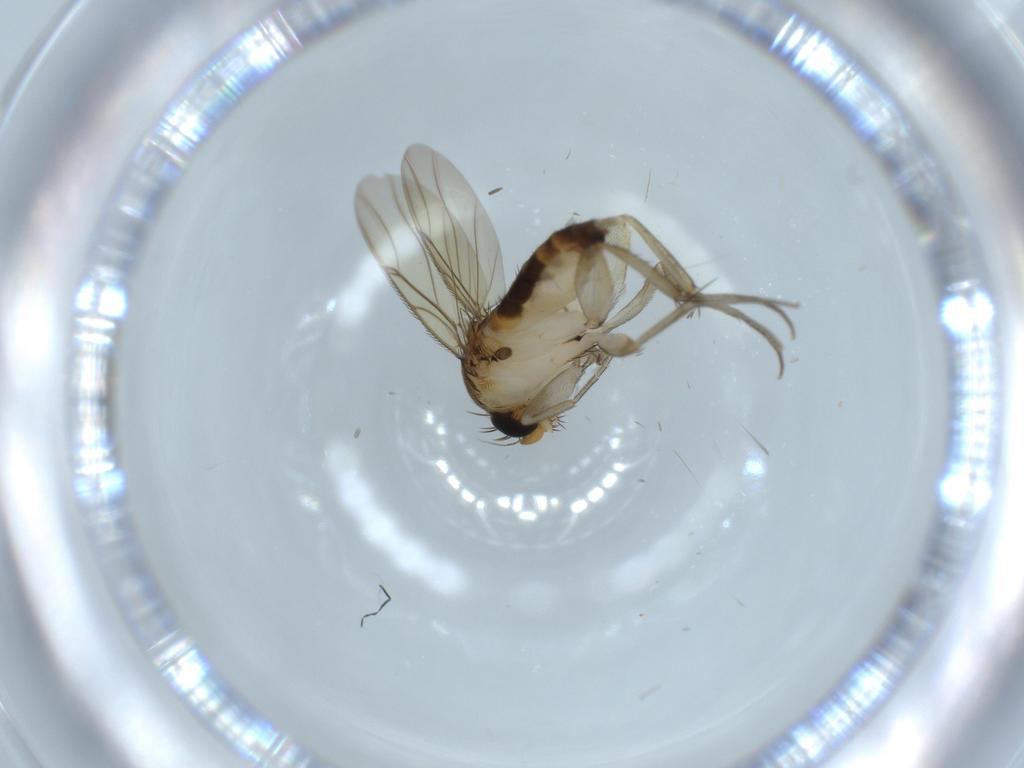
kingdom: Animalia
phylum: Arthropoda
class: Insecta
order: Diptera
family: Phoridae
